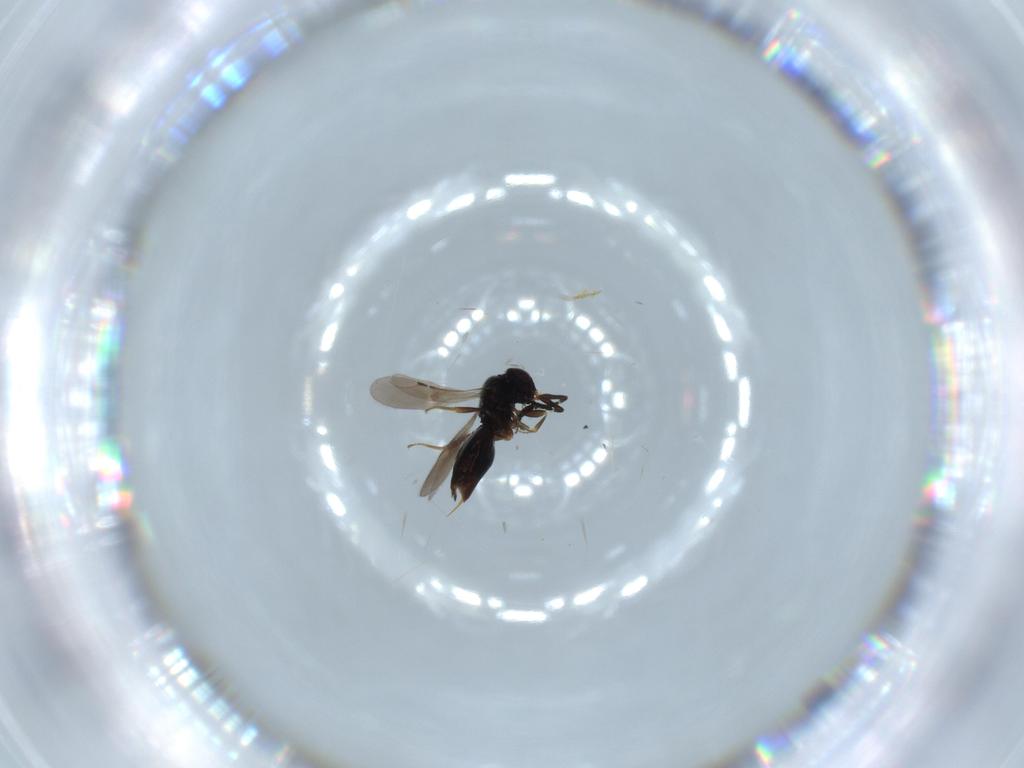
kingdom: Animalia
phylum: Arthropoda
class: Insecta
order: Hymenoptera
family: Ceraphronidae
